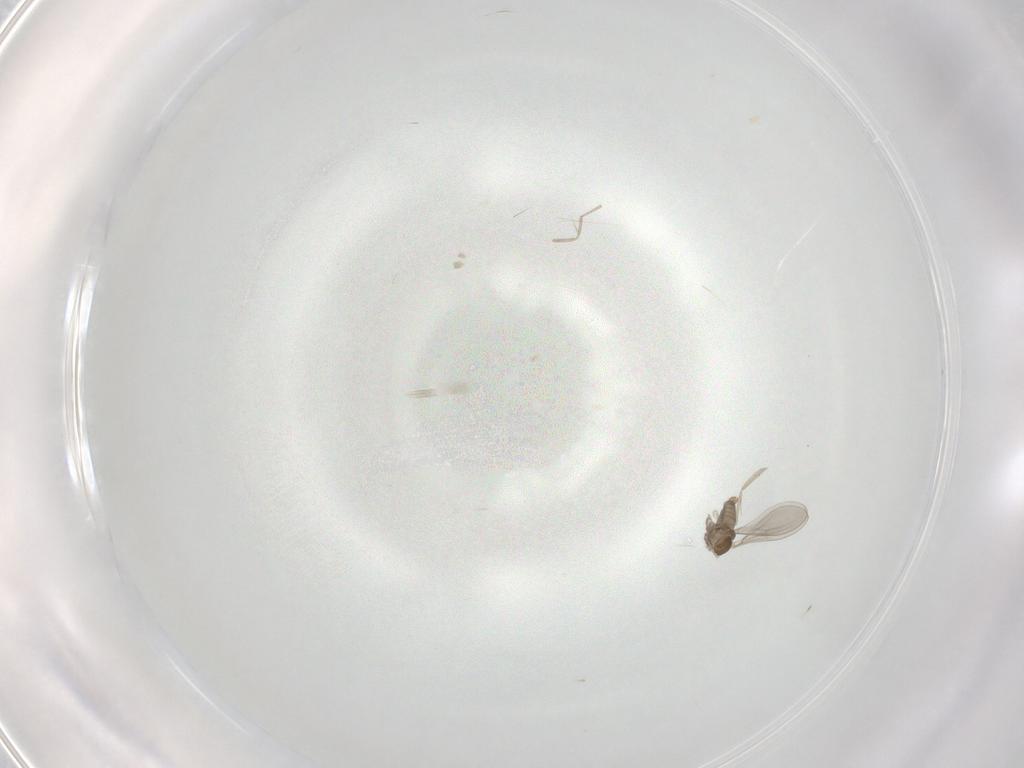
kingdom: Animalia
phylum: Arthropoda
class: Insecta
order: Diptera
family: Cecidomyiidae
